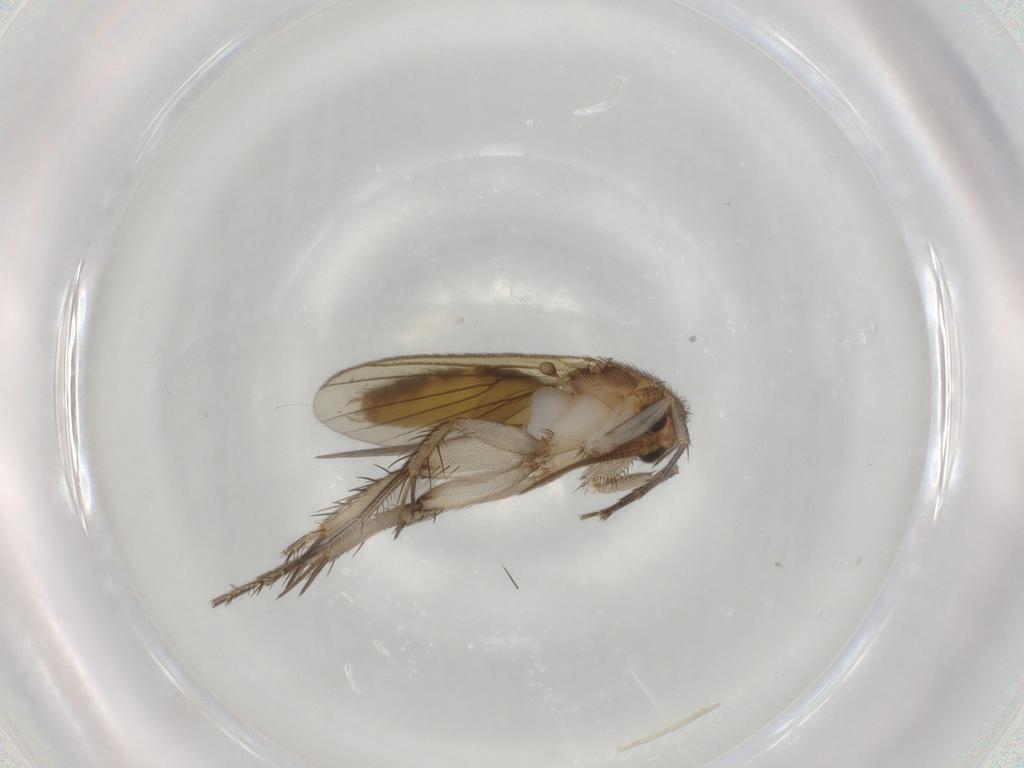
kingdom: Animalia
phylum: Arthropoda
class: Insecta
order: Diptera
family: Mycetophilidae
